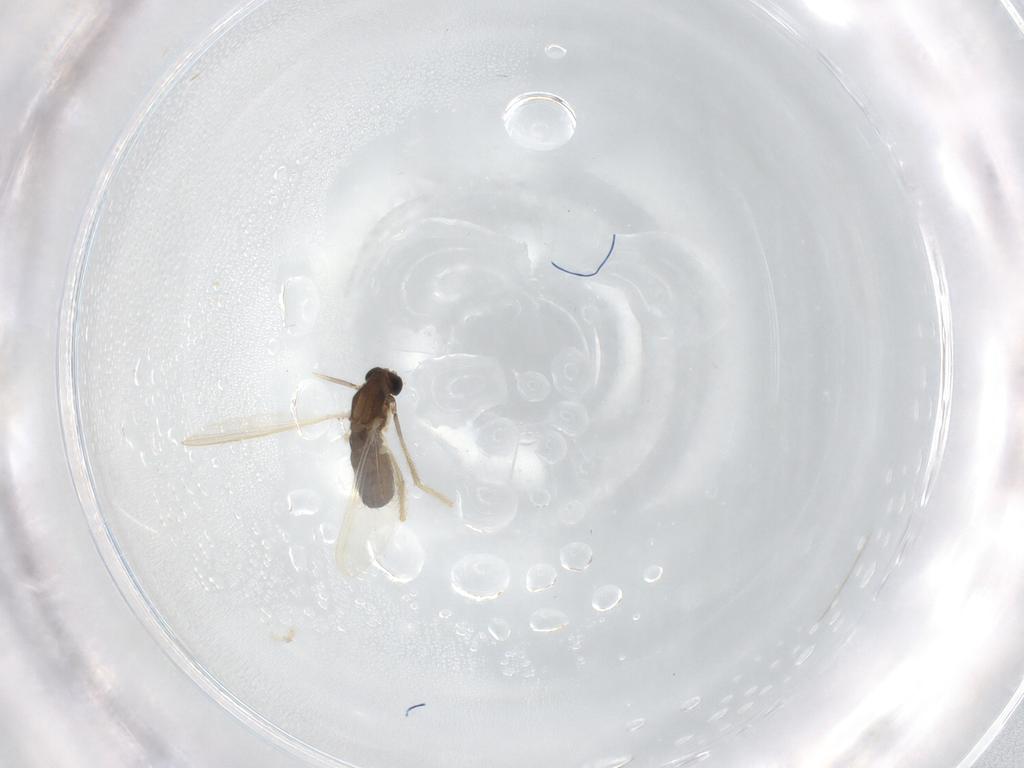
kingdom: Animalia
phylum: Arthropoda
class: Insecta
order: Diptera
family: Chironomidae
